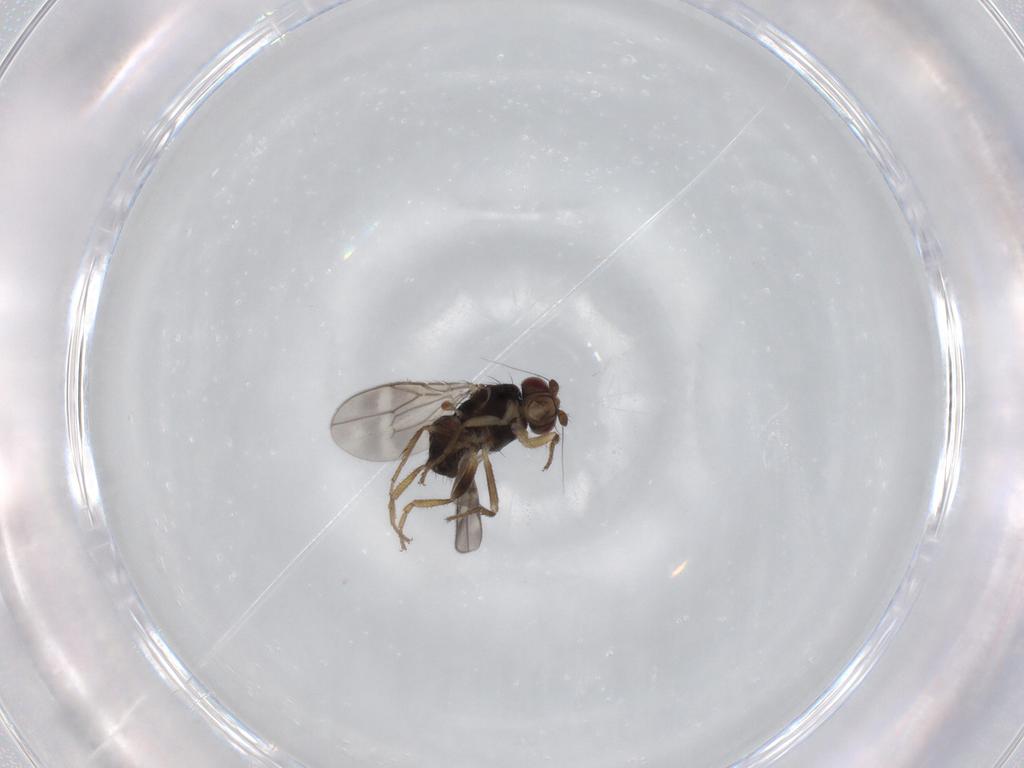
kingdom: Animalia
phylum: Arthropoda
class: Insecta
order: Diptera
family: Sphaeroceridae
